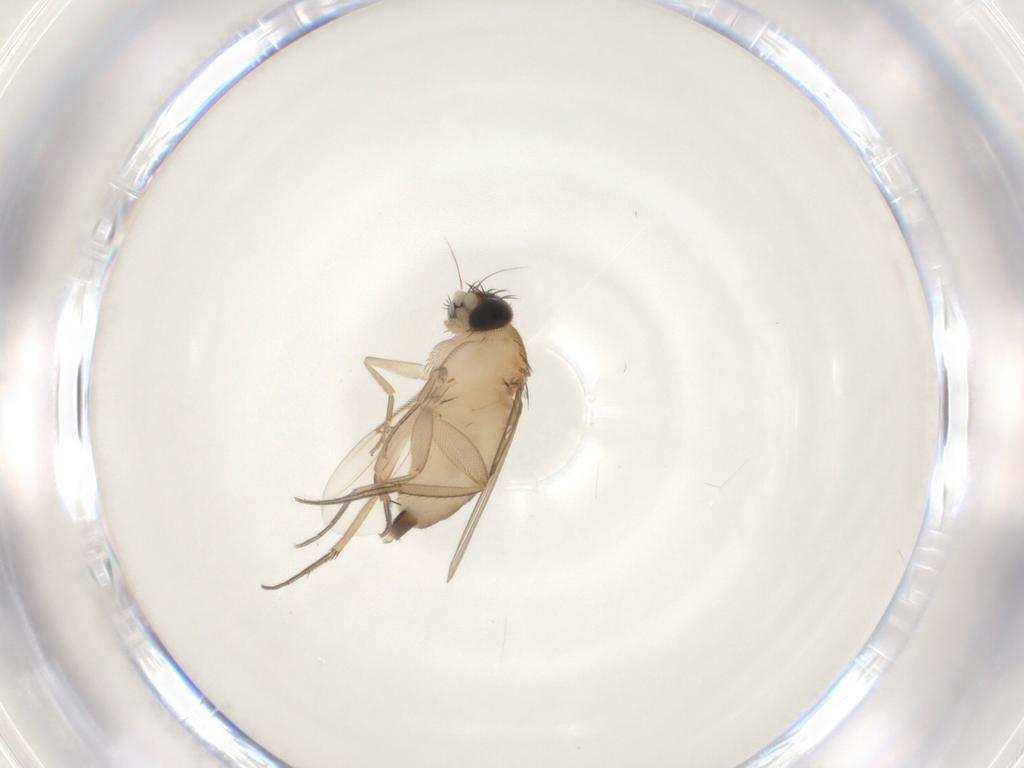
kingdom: Animalia
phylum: Arthropoda
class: Insecta
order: Diptera
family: Phoridae
